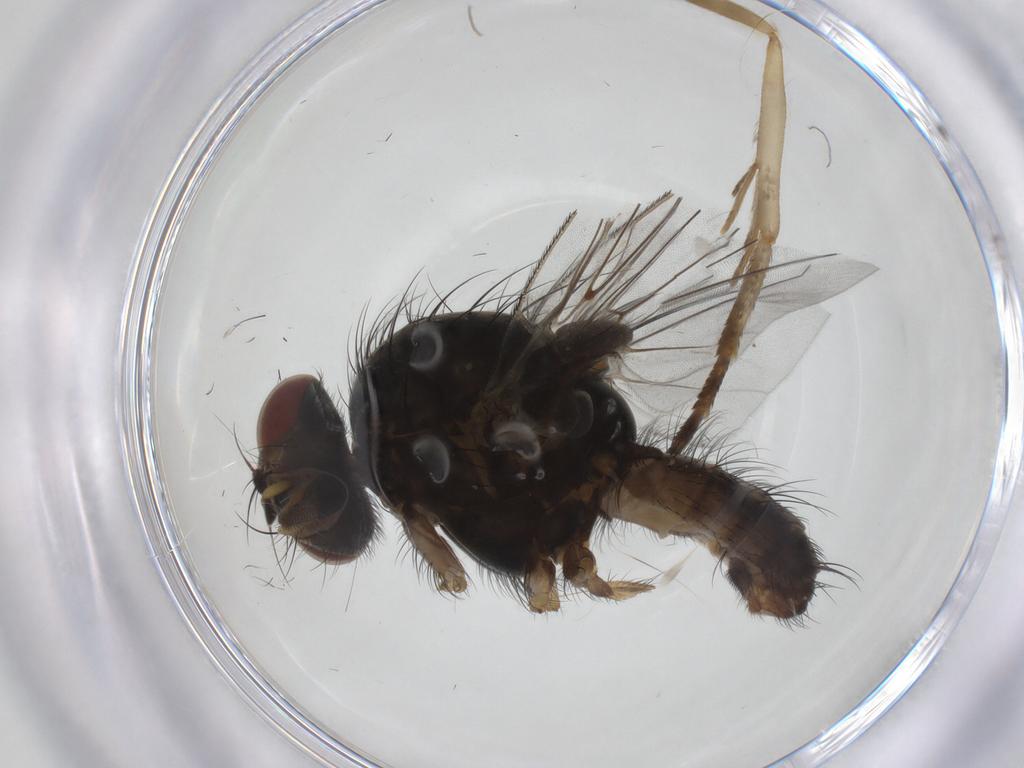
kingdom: Animalia
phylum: Arthropoda
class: Insecta
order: Diptera
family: Anthomyiidae
